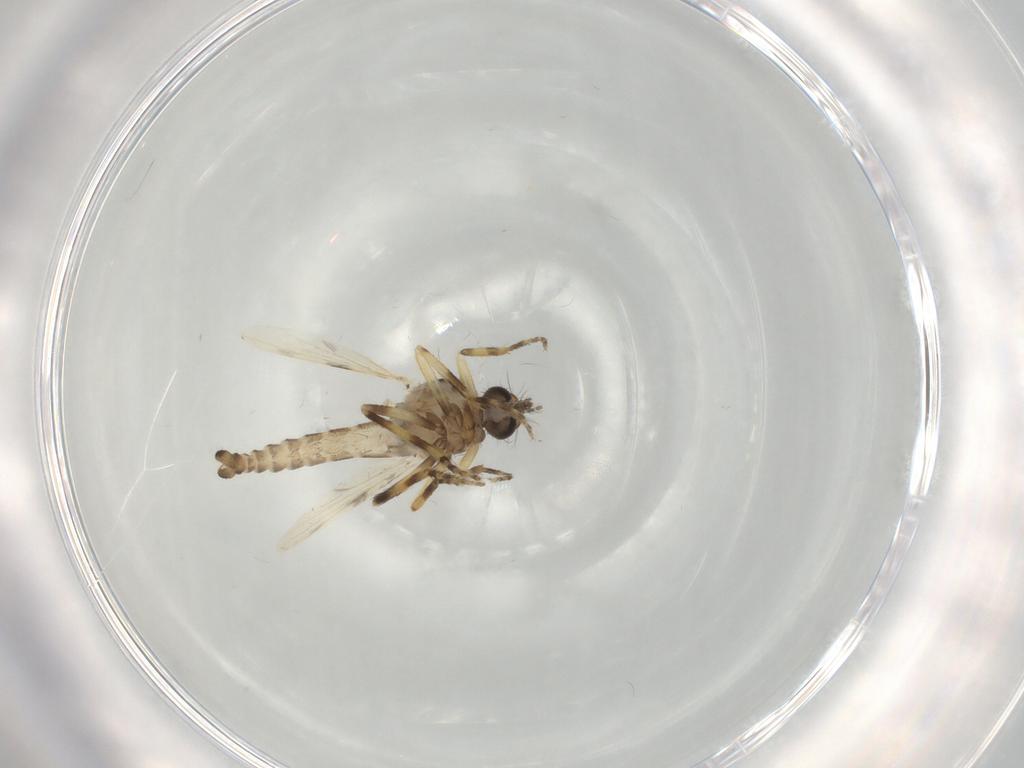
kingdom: Animalia
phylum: Arthropoda
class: Insecta
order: Diptera
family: Ceratopogonidae
